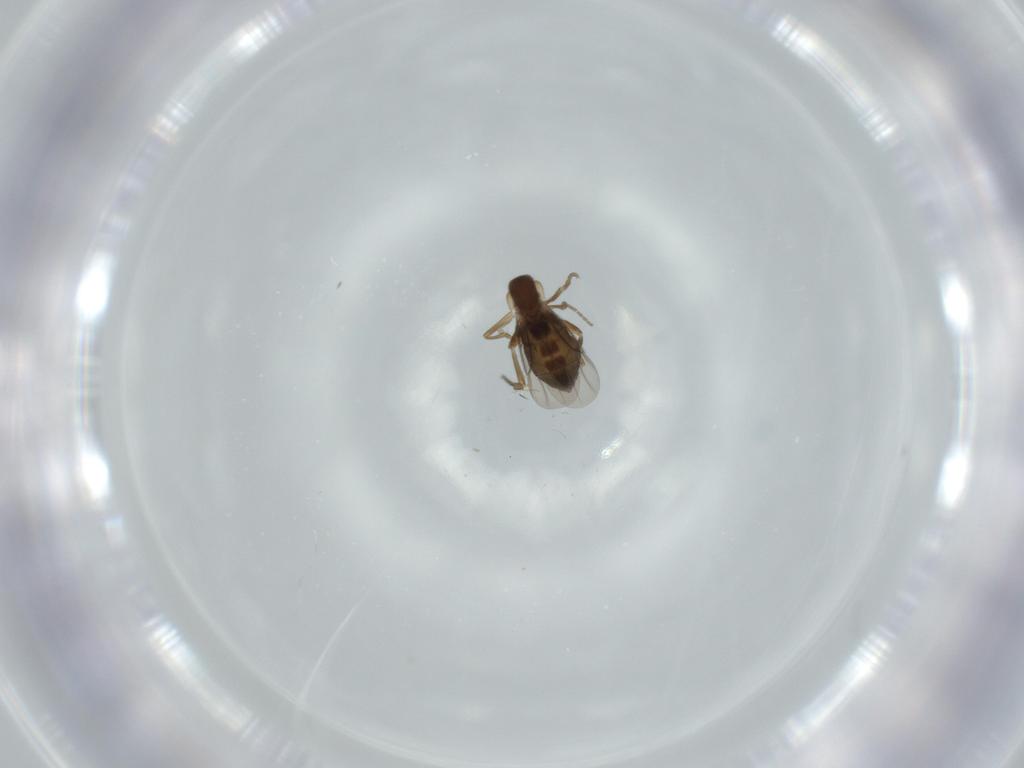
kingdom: Animalia
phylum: Arthropoda
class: Insecta
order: Diptera
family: Phoridae
